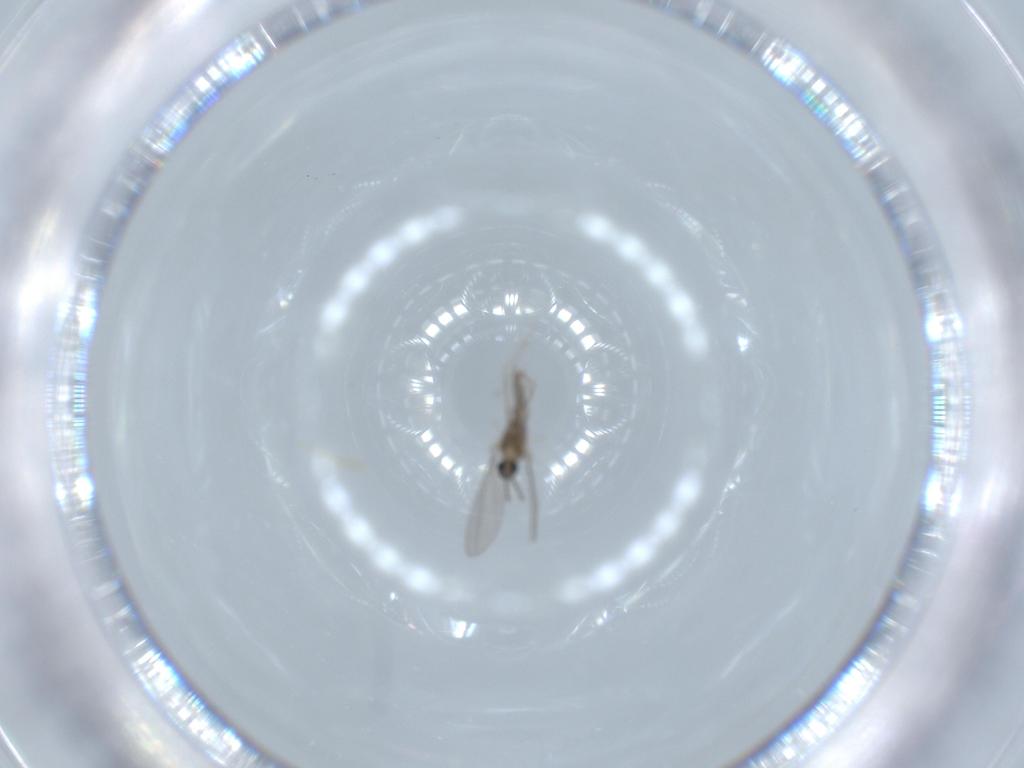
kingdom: Animalia
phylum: Arthropoda
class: Insecta
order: Diptera
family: Cecidomyiidae
